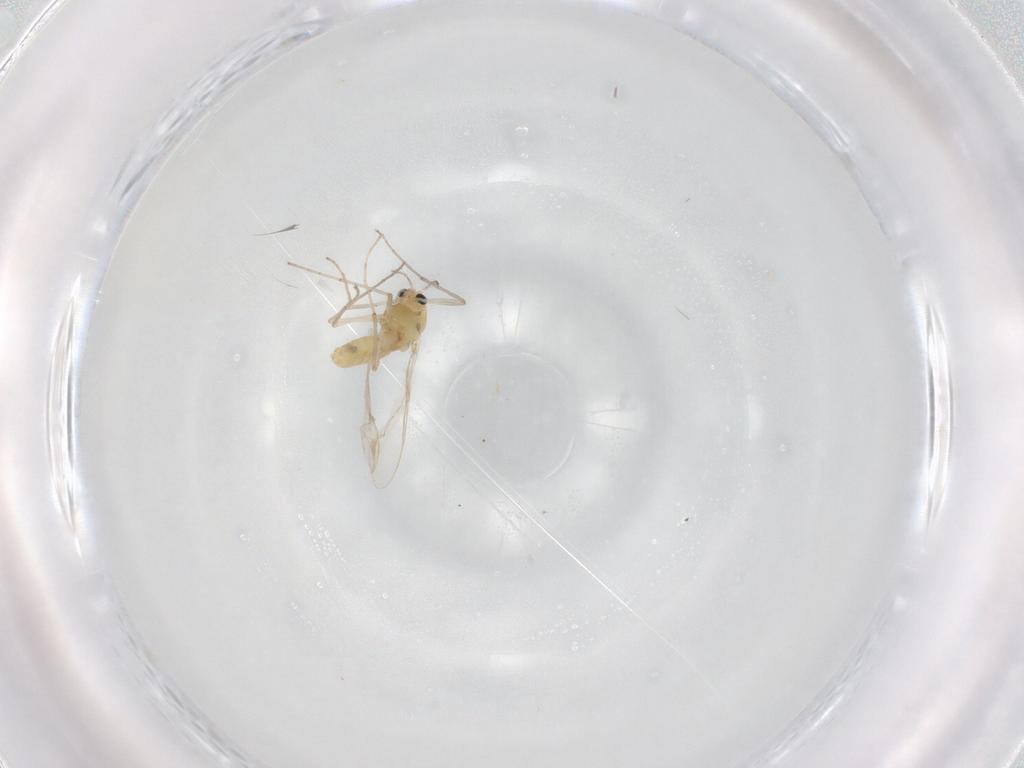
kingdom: Animalia
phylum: Arthropoda
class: Insecta
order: Diptera
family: Chironomidae
